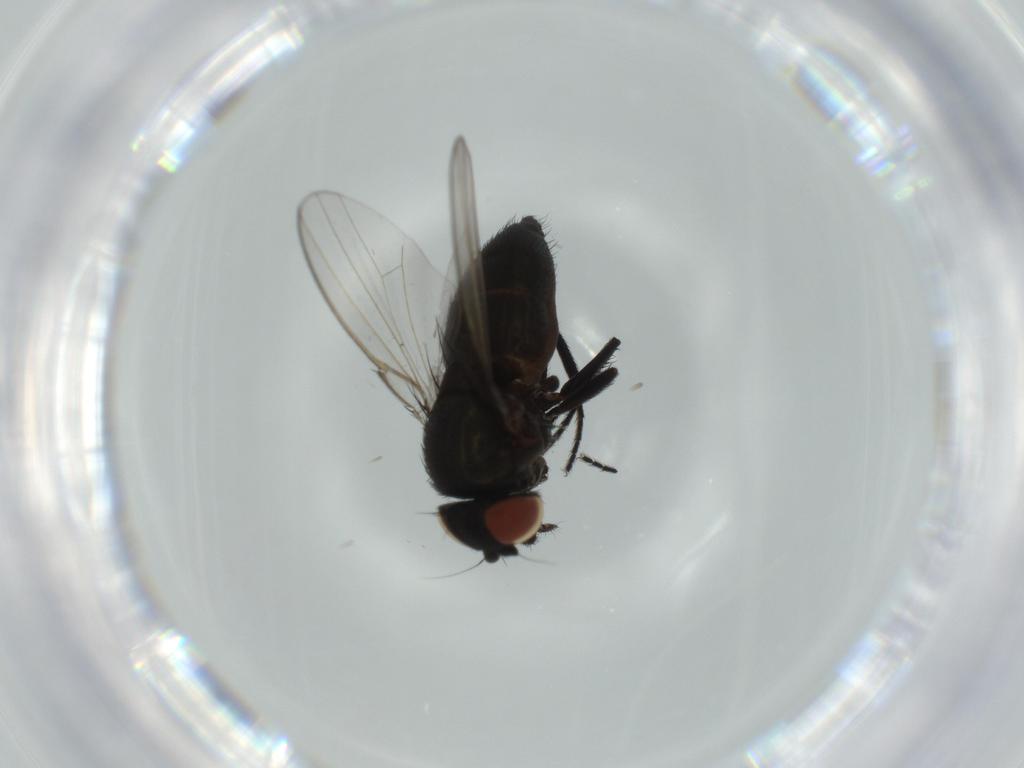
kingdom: Animalia
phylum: Arthropoda
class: Insecta
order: Diptera
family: Milichiidae
